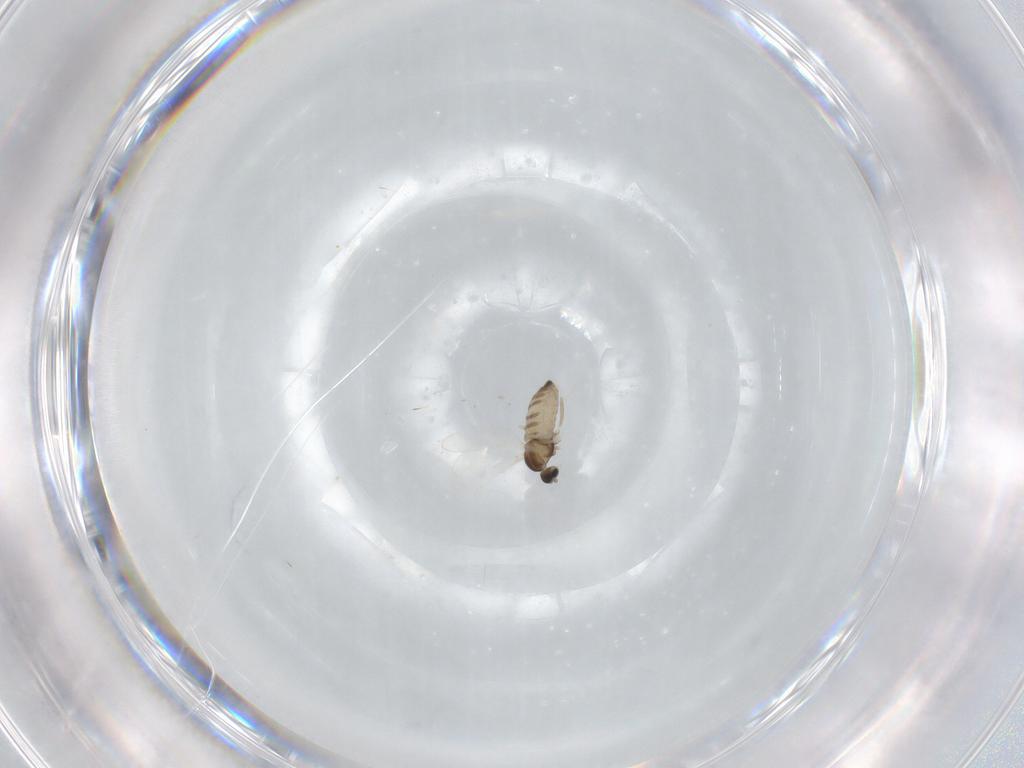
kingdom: Animalia
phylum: Arthropoda
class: Insecta
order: Diptera
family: Cecidomyiidae
